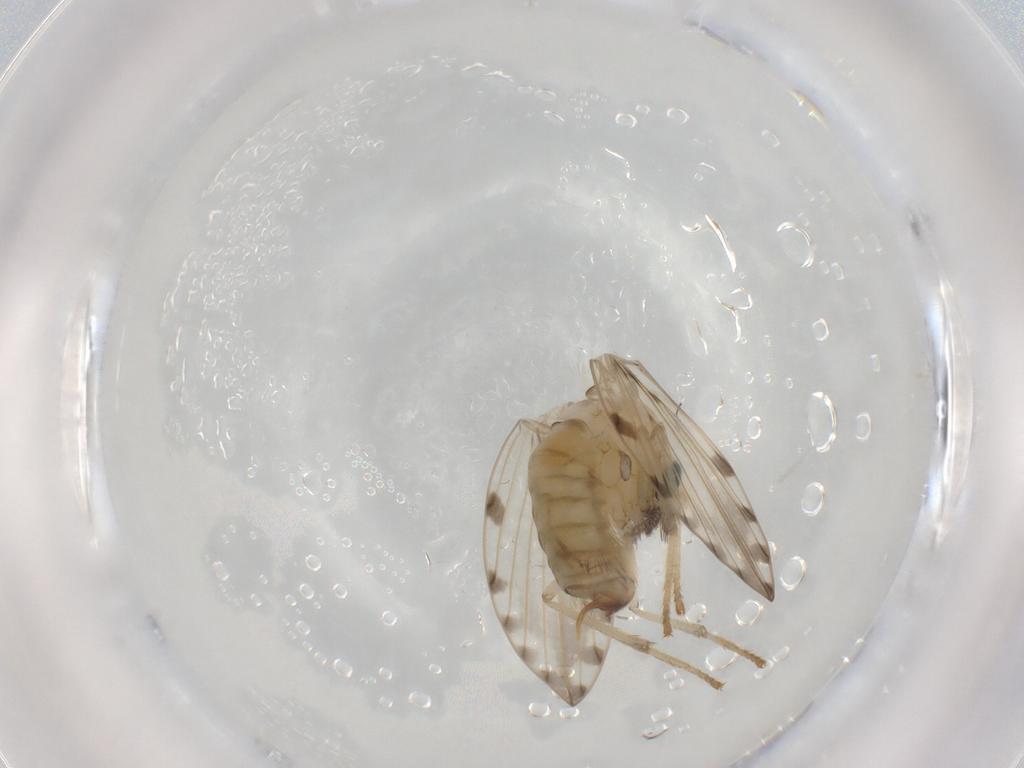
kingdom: Animalia
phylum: Arthropoda
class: Insecta
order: Diptera
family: Psychodidae
